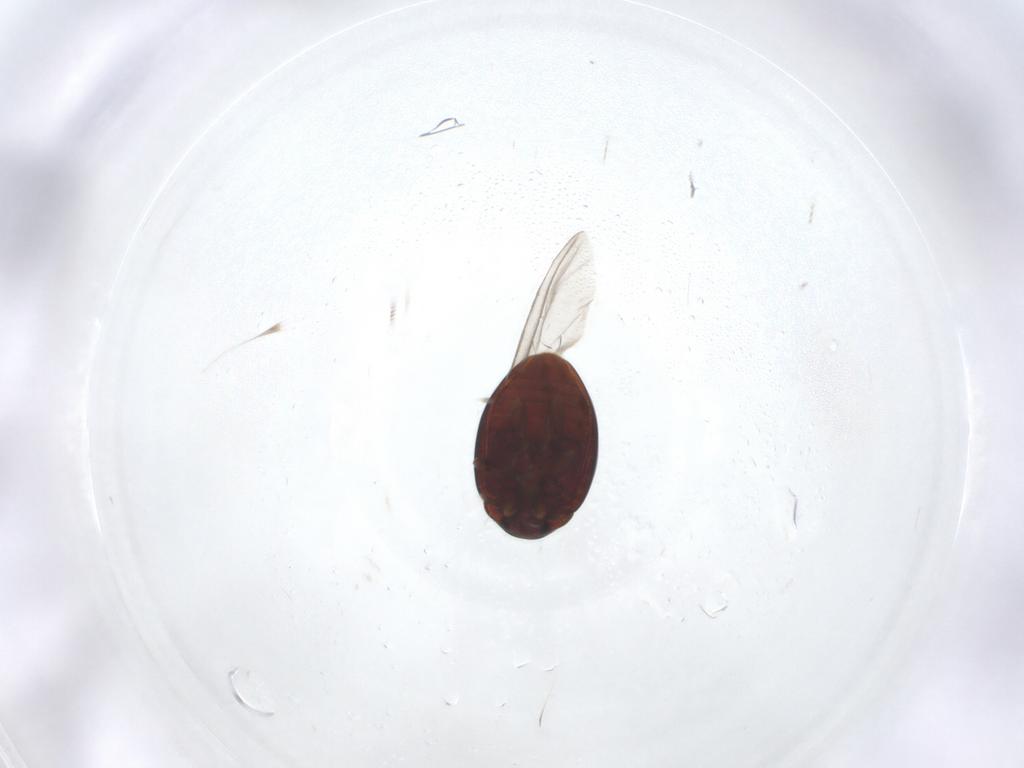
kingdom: Animalia
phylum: Arthropoda
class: Insecta
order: Coleoptera
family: Coccinellidae
